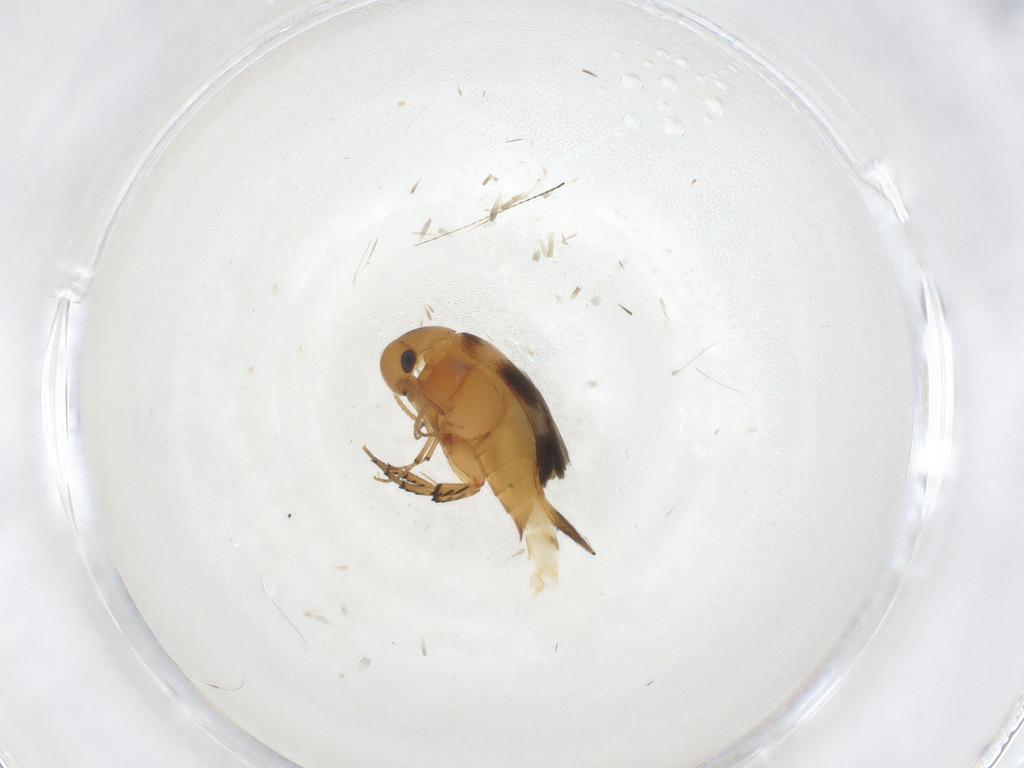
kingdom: Animalia
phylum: Arthropoda
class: Insecta
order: Coleoptera
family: Mordellidae
